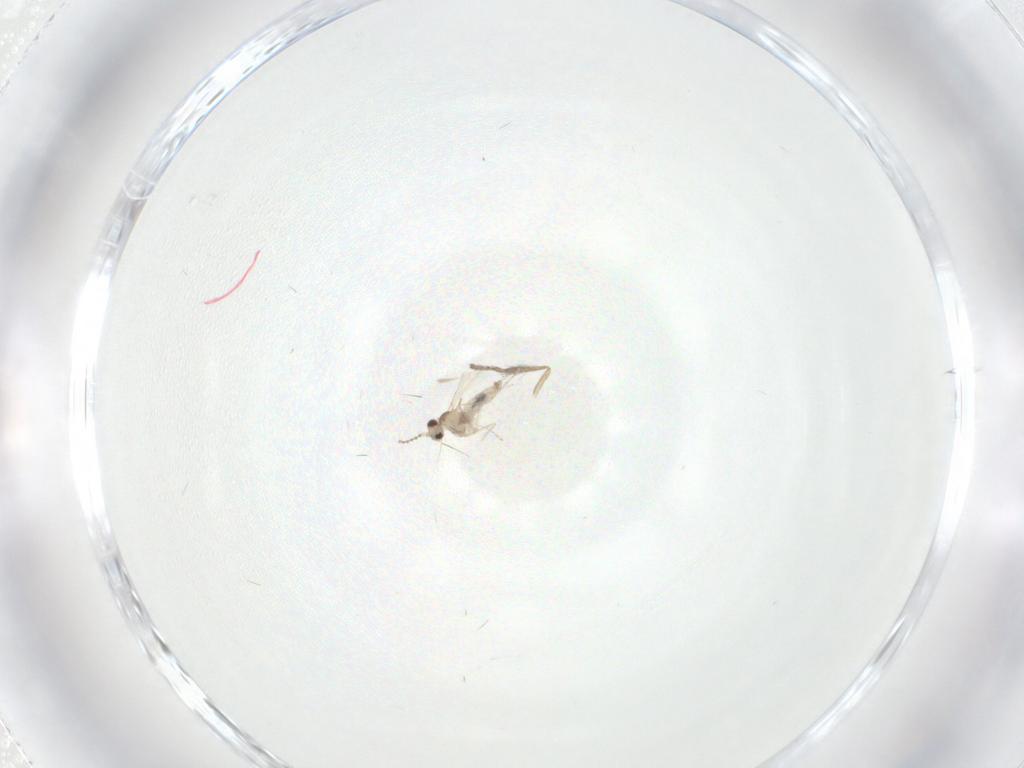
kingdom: Animalia
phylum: Arthropoda
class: Insecta
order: Diptera
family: Cecidomyiidae
